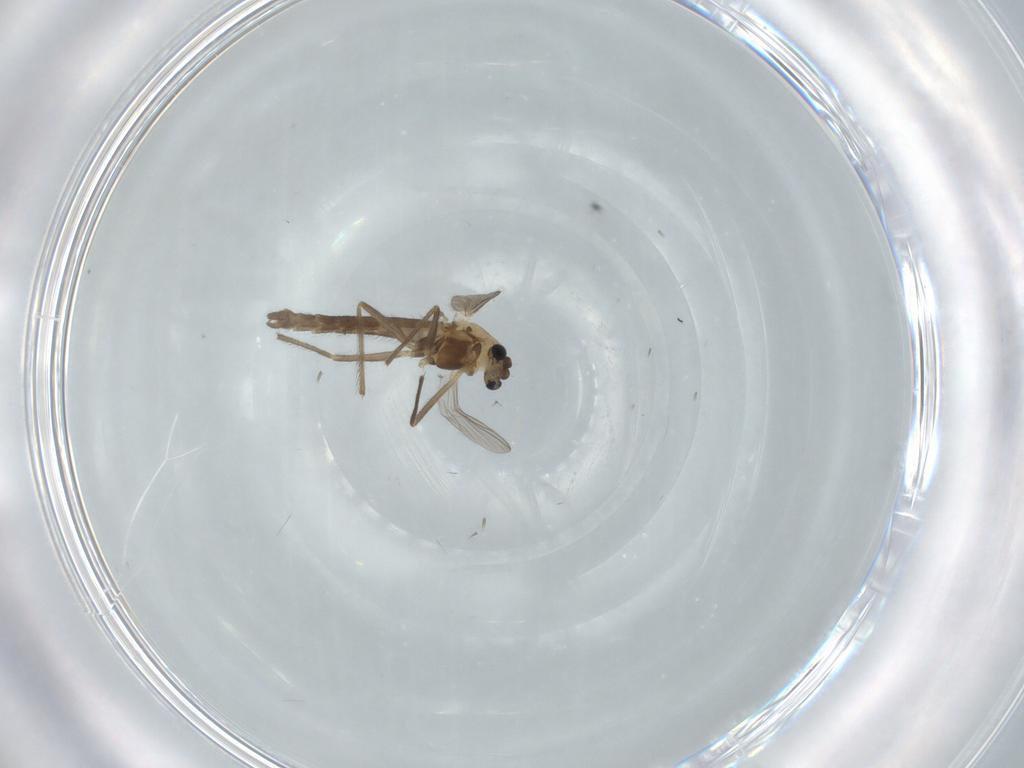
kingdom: Animalia
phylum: Arthropoda
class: Insecta
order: Diptera
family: Chironomidae
